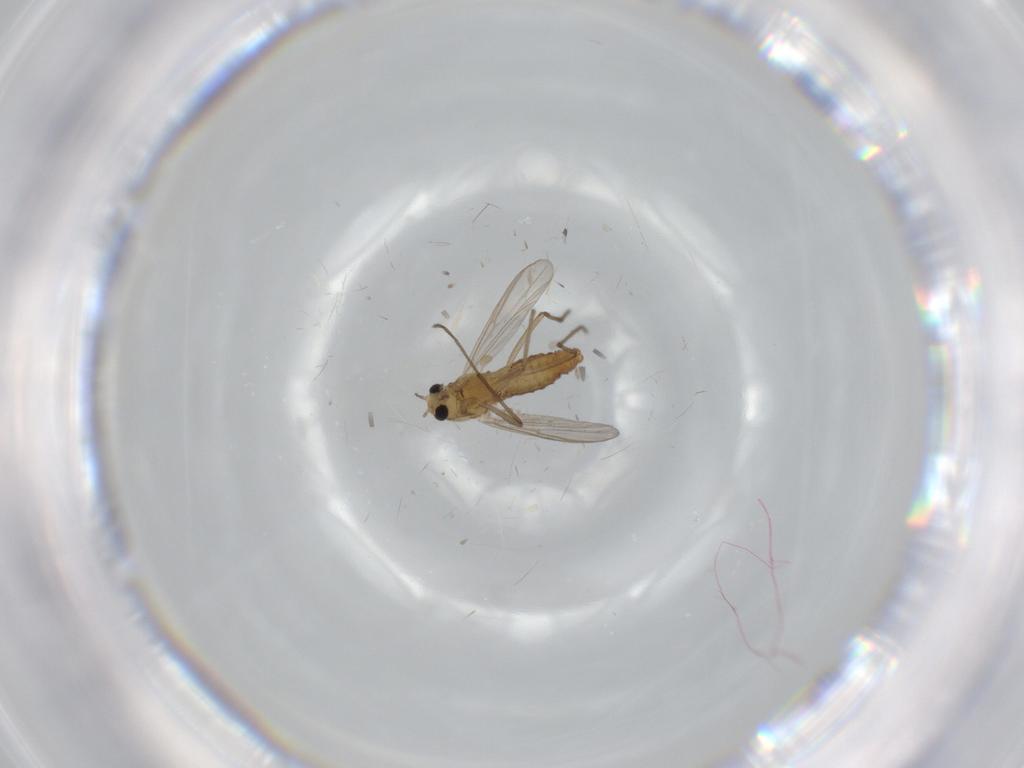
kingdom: Animalia
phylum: Arthropoda
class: Insecta
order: Diptera
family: Chironomidae
